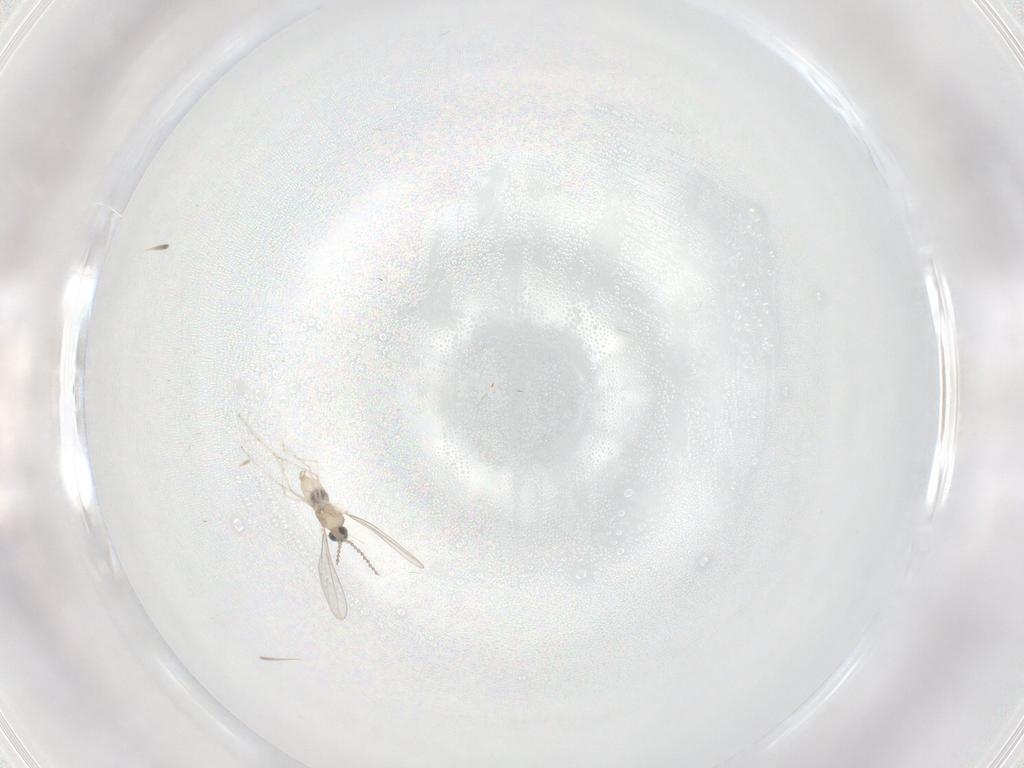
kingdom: Animalia
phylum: Arthropoda
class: Insecta
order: Diptera
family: Cecidomyiidae
